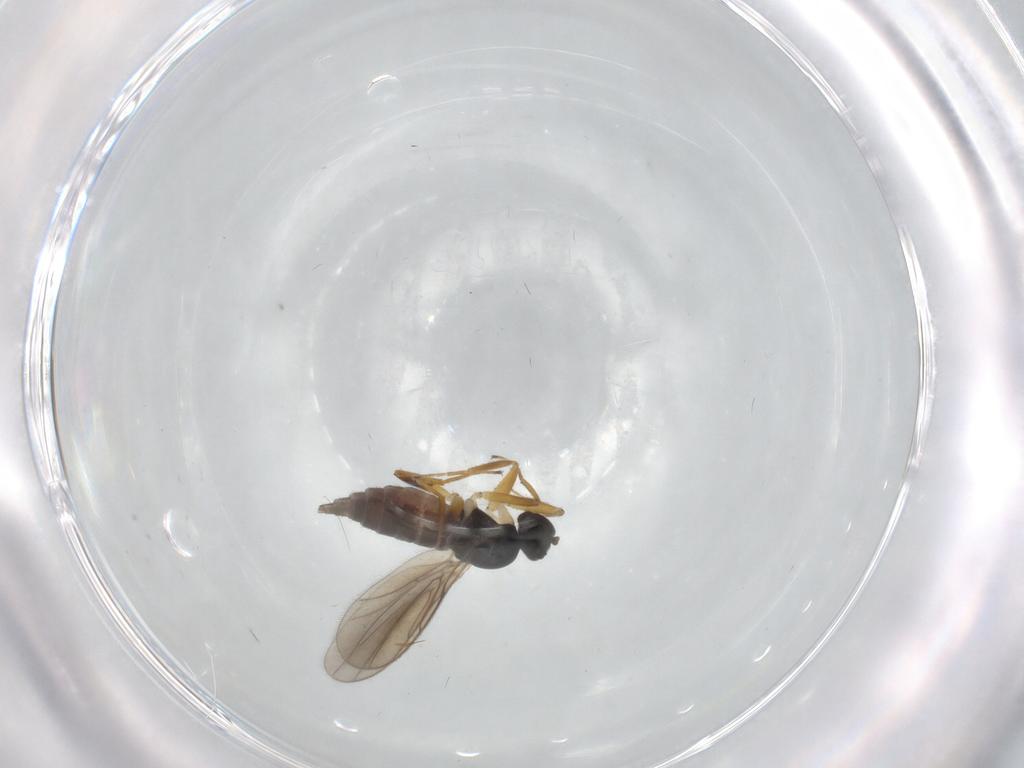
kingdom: Animalia
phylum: Arthropoda
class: Insecta
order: Diptera
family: Hybotidae
